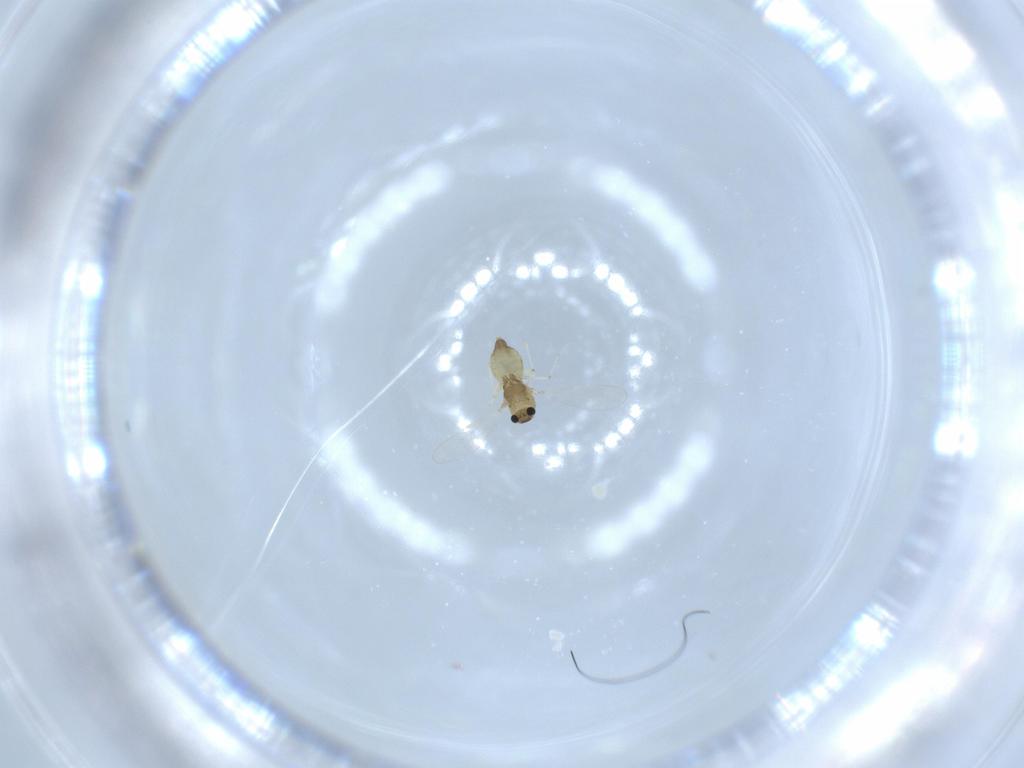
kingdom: Animalia
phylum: Arthropoda
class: Insecta
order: Diptera
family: Chironomidae
